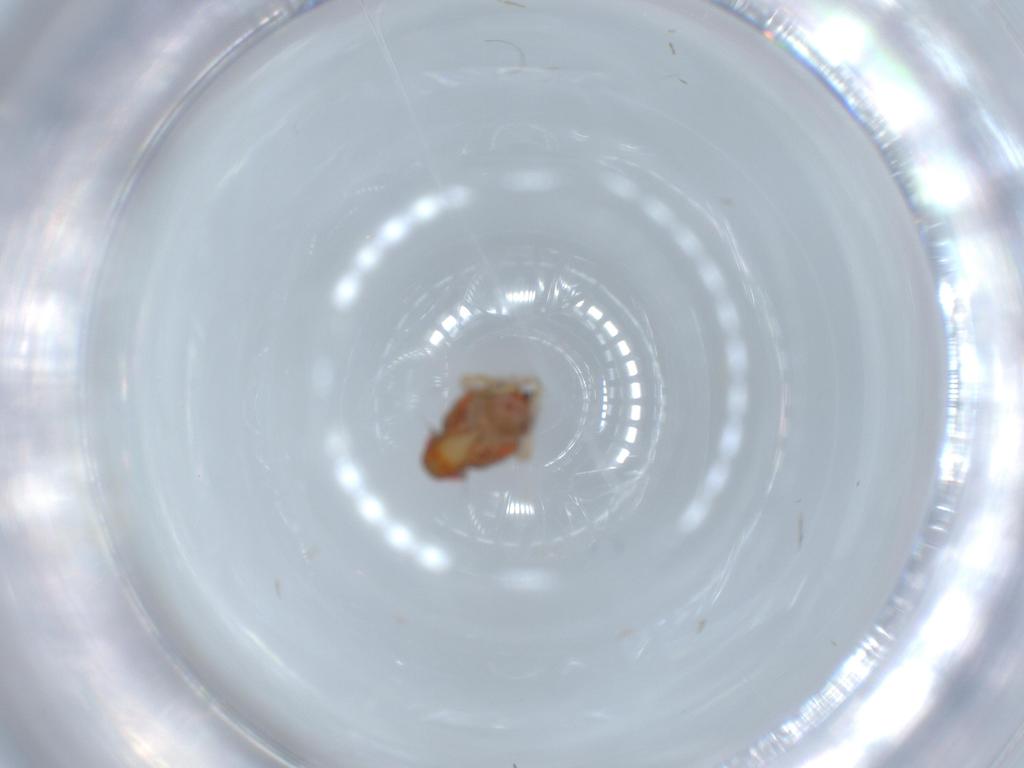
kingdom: Animalia
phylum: Arthropoda
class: Insecta
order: Hemiptera
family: Issidae
